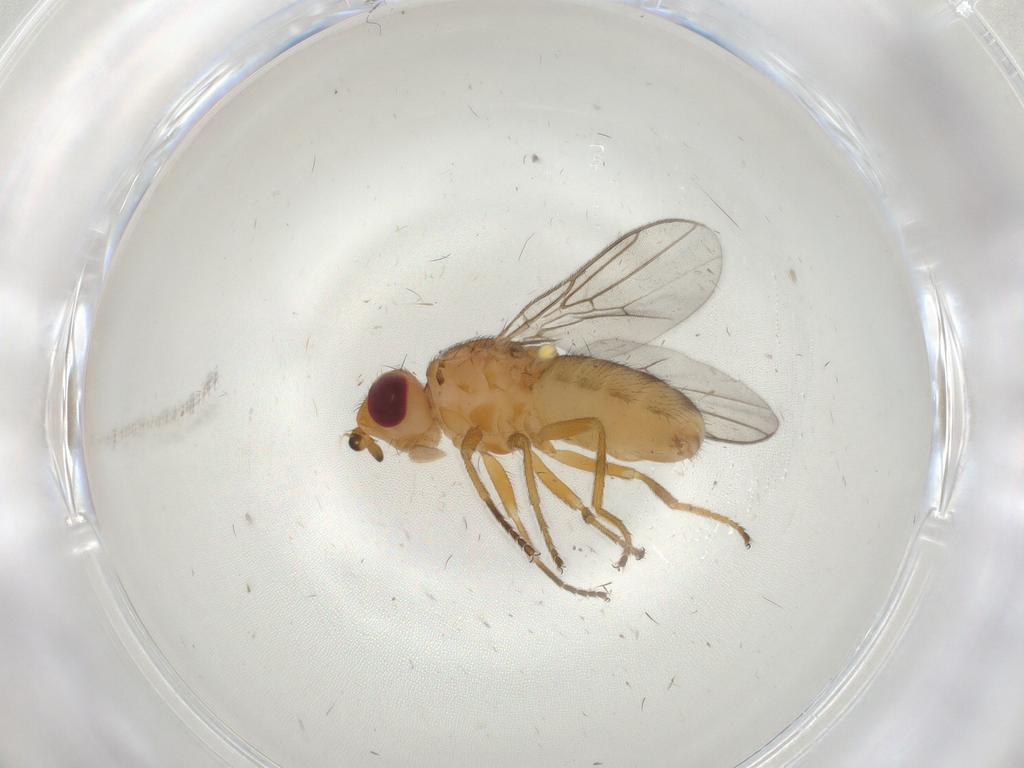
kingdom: Animalia
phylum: Arthropoda
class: Insecta
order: Diptera
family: Chloropidae
